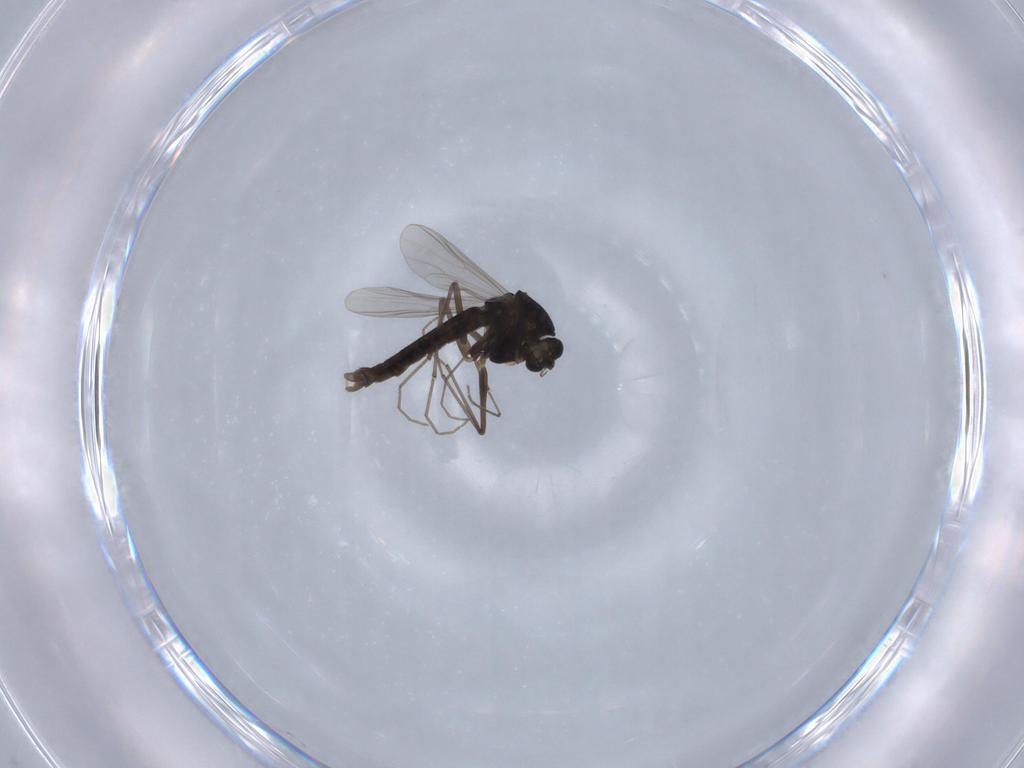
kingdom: Animalia
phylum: Arthropoda
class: Insecta
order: Diptera
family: Chironomidae
